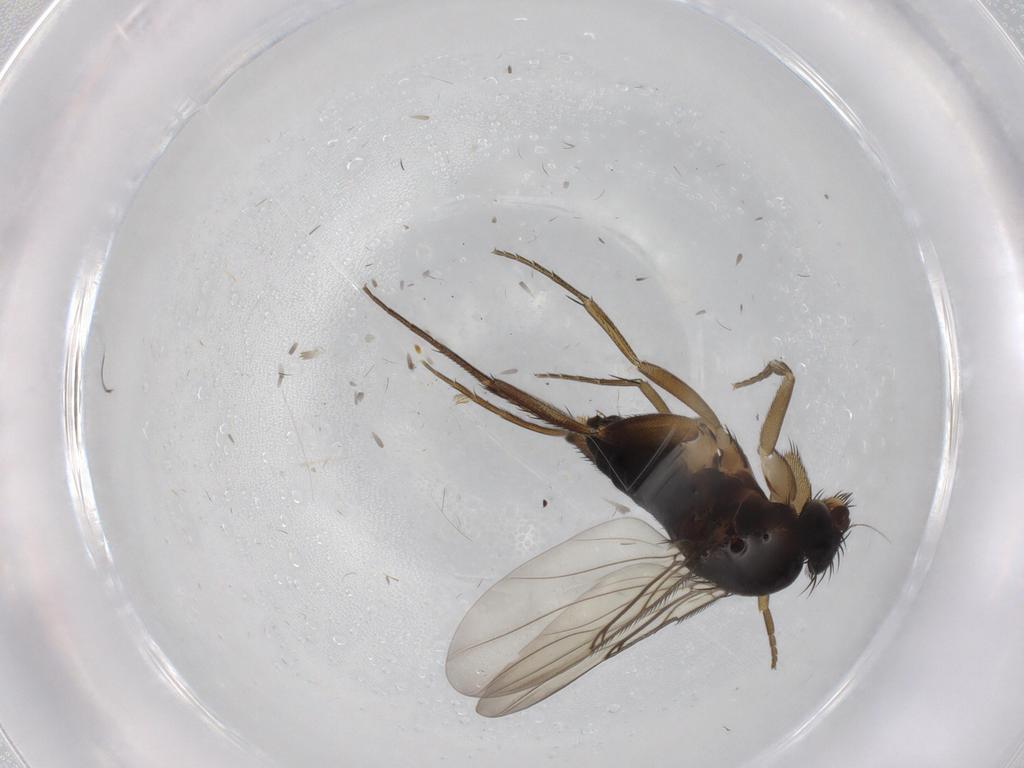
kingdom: Animalia
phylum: Arthropoda
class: Insecta
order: Diptera
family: Phoridae
